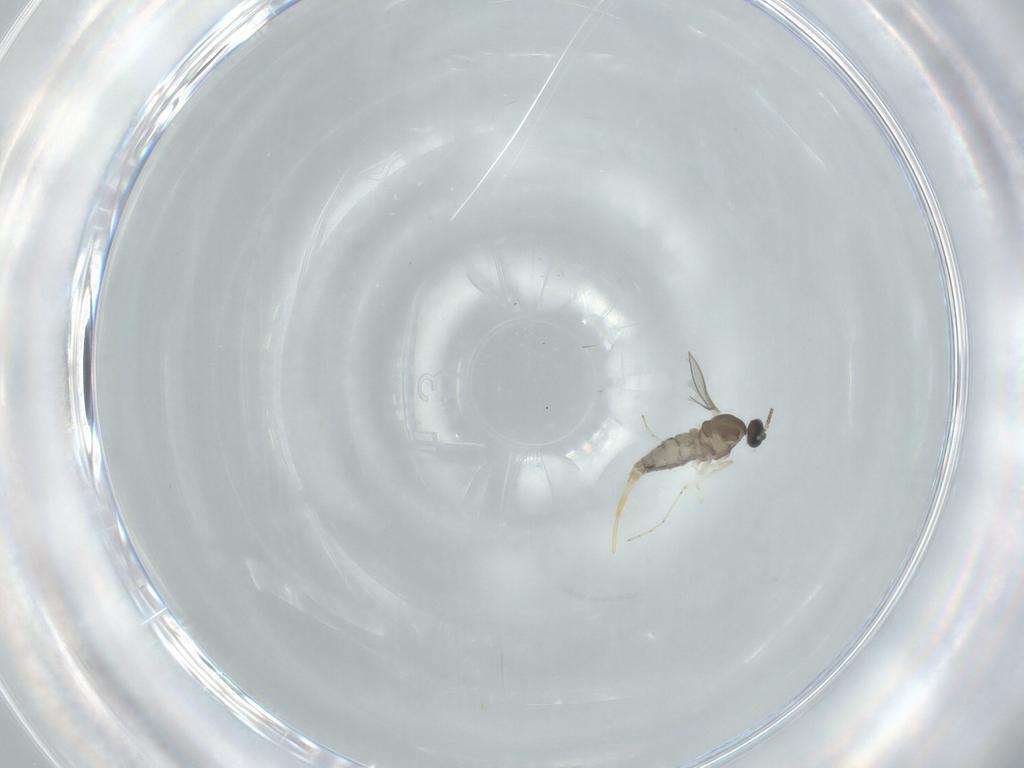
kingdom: Animalia
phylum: Arthropoda
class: Insecta
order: Diptera
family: Cecidomyiidae
